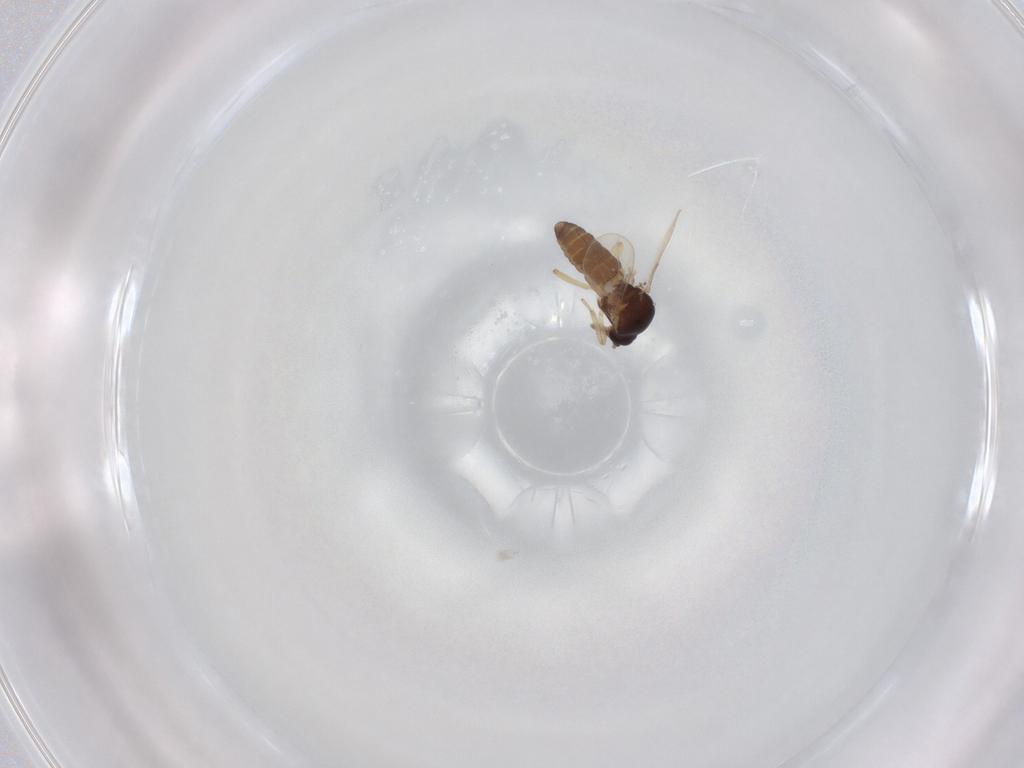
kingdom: Animalia
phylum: Arthropoda
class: Insecta
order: Diptera
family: Ceratopogonidae
